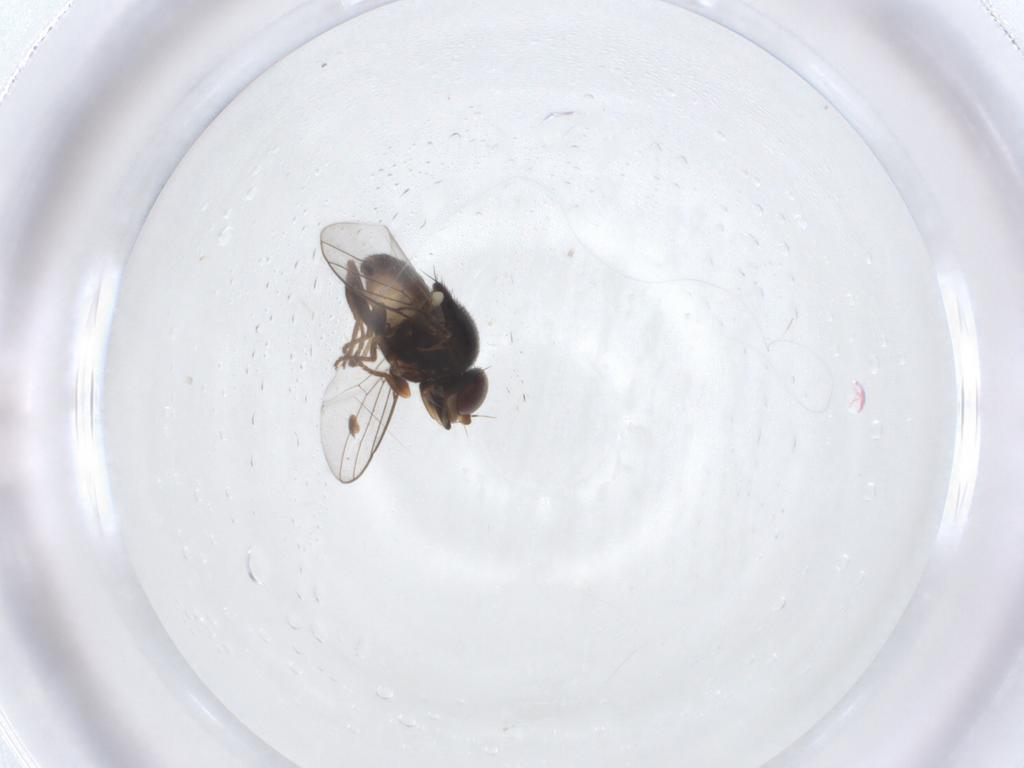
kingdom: Animalia
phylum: Arthropoda
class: Insecta
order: Diptera
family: Heleomyzidae
